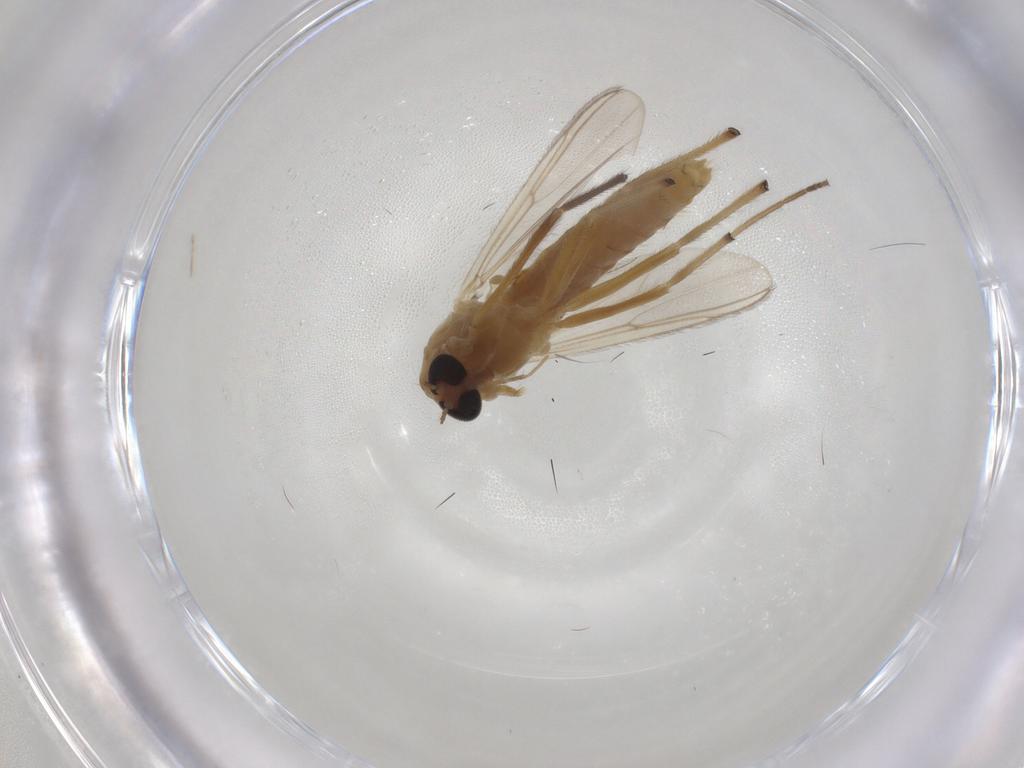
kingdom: Animalia
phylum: Arthropoda
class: Insecta
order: Diptera
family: Chironomidae
